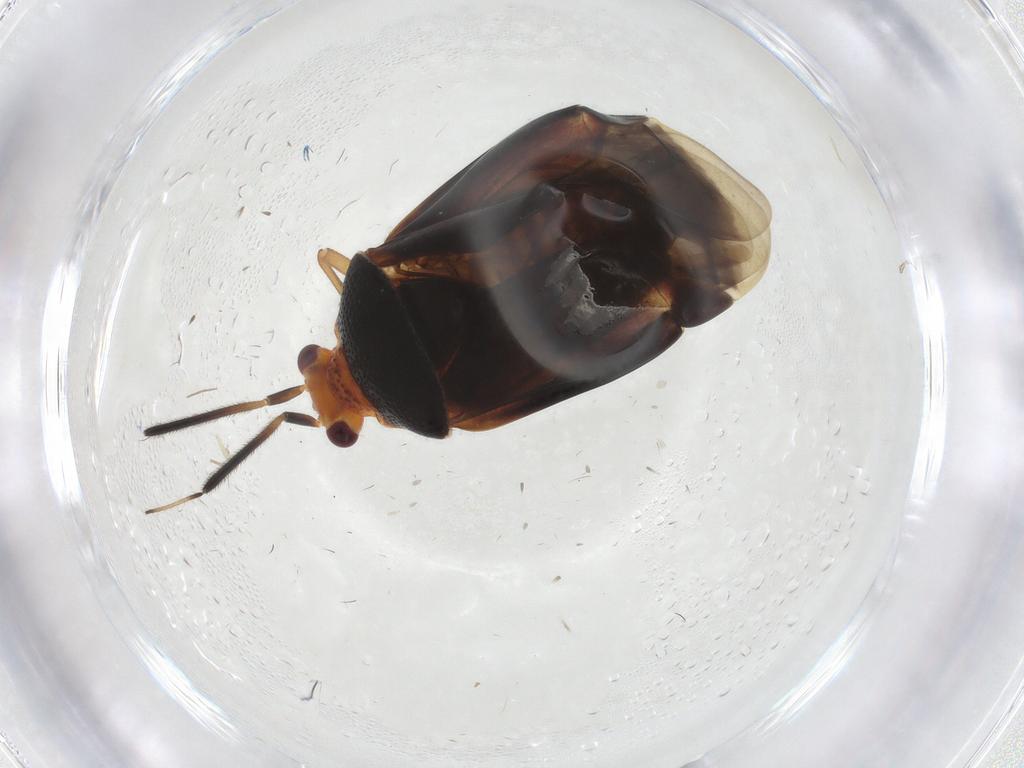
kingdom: Animalia
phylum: Arthropoda
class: Insecta
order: Hemiptera
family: Miridae
